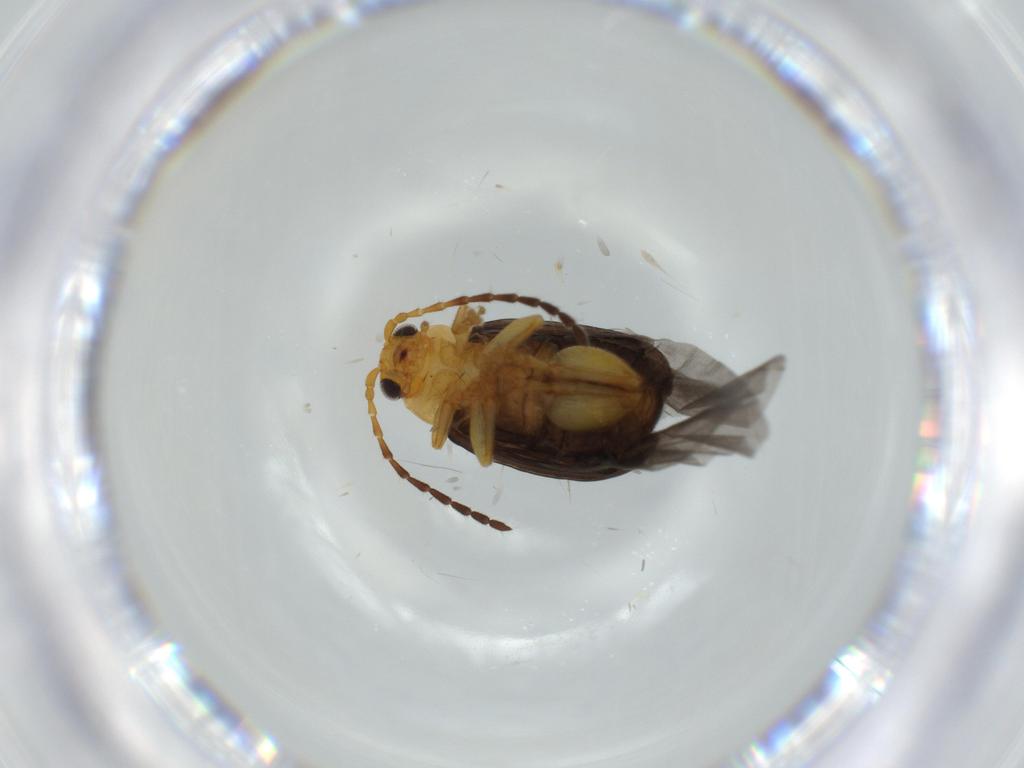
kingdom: Animalia
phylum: Arthropoda
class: Insecta
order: Coleoptera
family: Chrysomelidae
